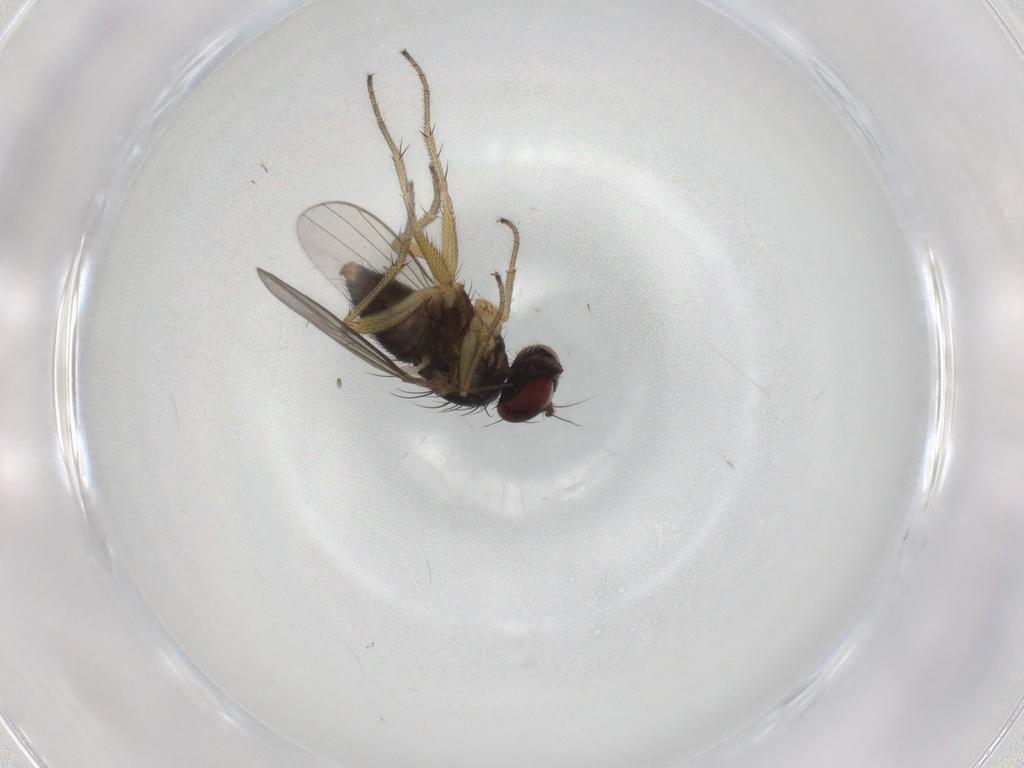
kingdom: Animalia
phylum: Arthropoda
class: Insecta
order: Diptera
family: Dolichopodidae
